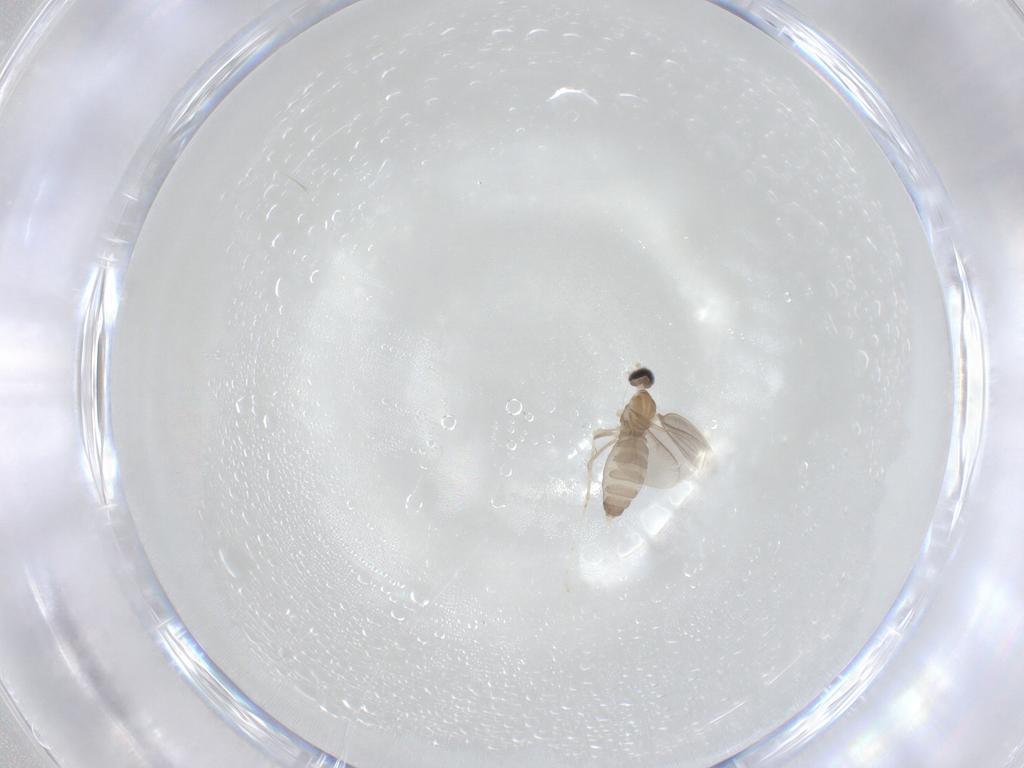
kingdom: Animalia
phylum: Arthropoda
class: Insecta
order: Diptera
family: Cecidomyiidae
